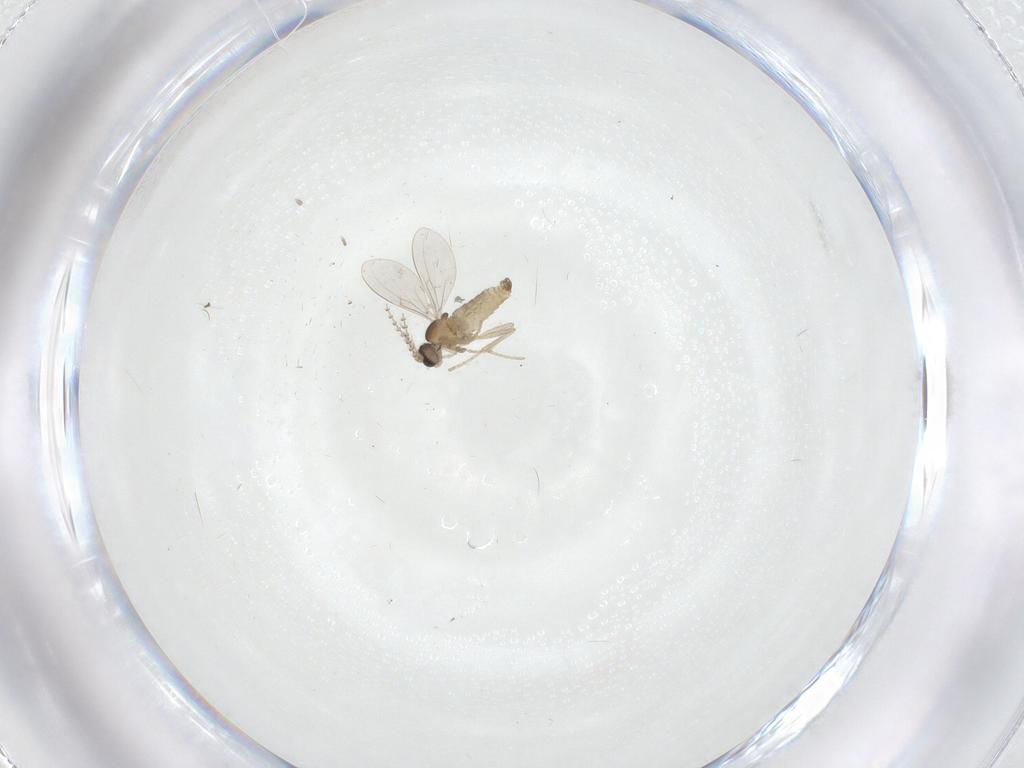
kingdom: Animalia
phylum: Arthropoda
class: Insecta
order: Diptera
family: Cecidomyiidae
